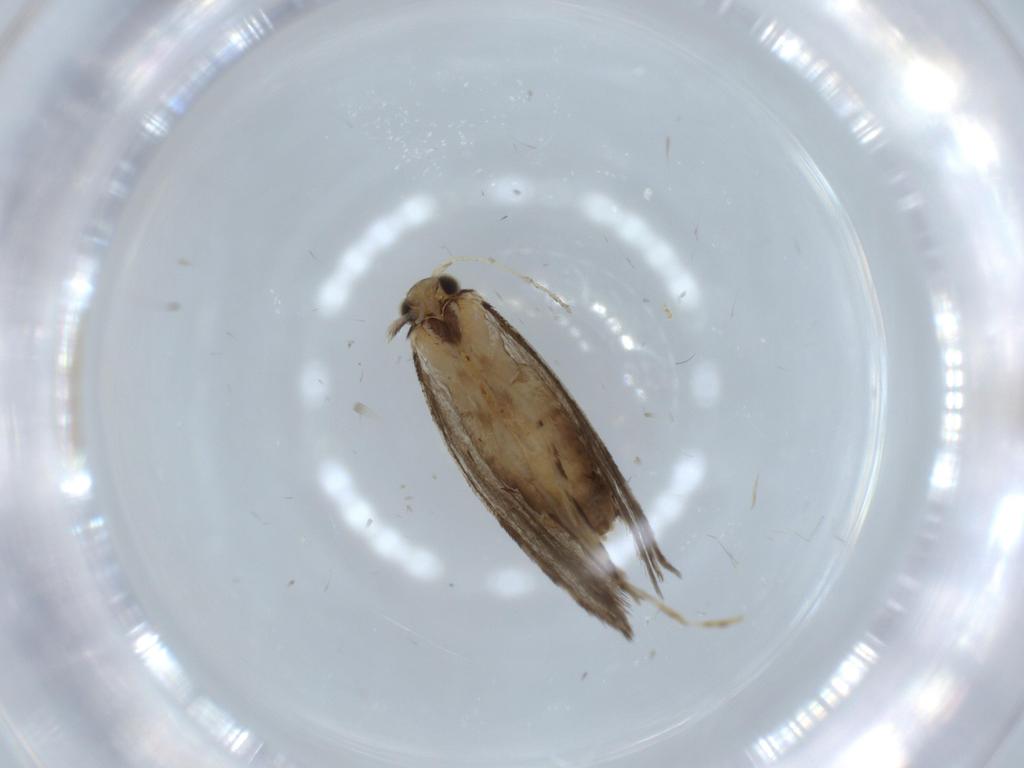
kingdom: Animalia
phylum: Arthropoda
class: Insecta
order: Lepidoptera
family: Tineidae
